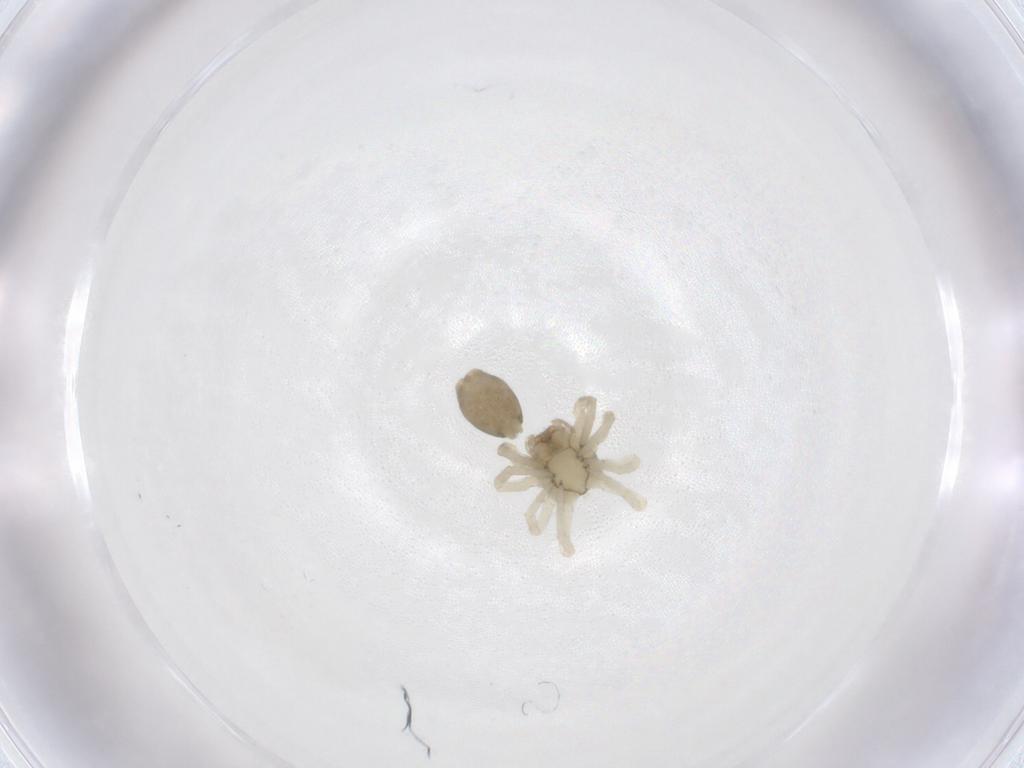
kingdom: Animalia
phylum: Arthropoda
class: Arachnida
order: Araneae
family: Trachelidae
